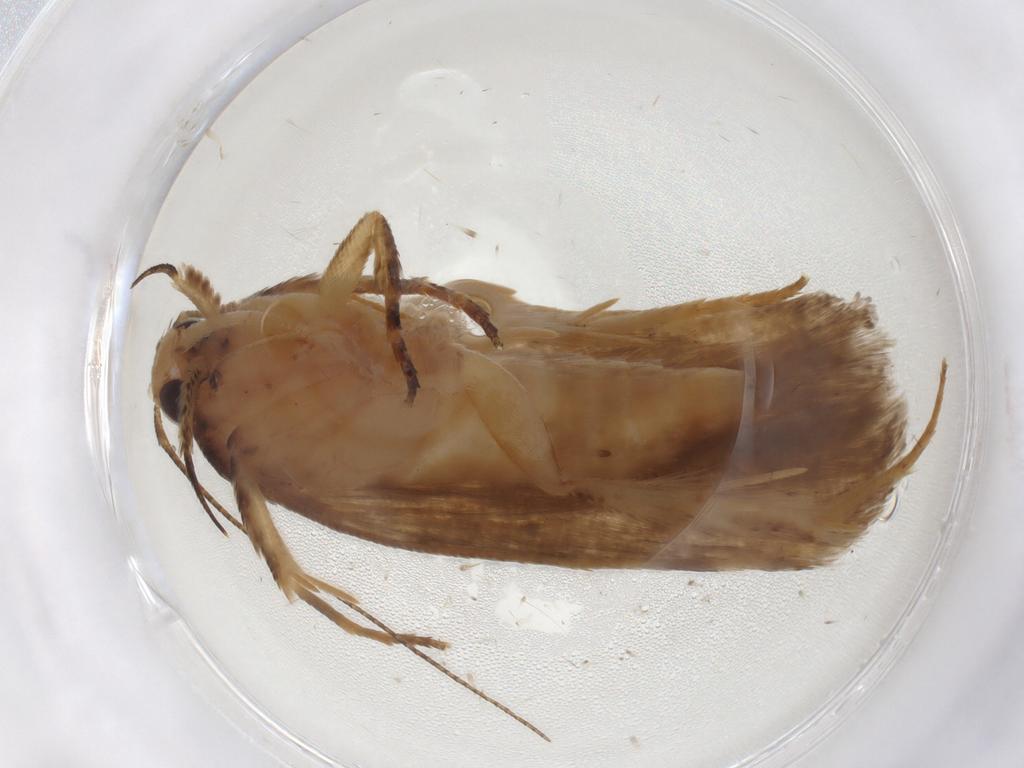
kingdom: Animalia
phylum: Arthropoda
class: Insecta
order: Lepidoptera
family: Gelechiidae
